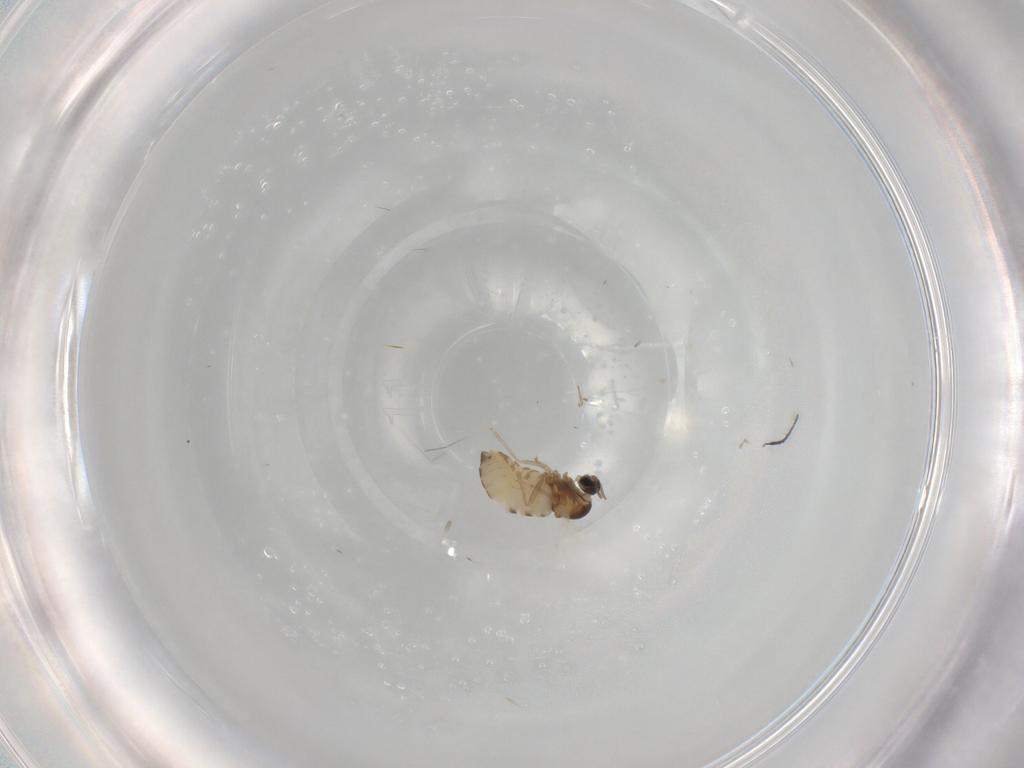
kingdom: Animalia
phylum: Arthropoda
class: Insecta
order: Diptera
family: Cecidomyiidae
